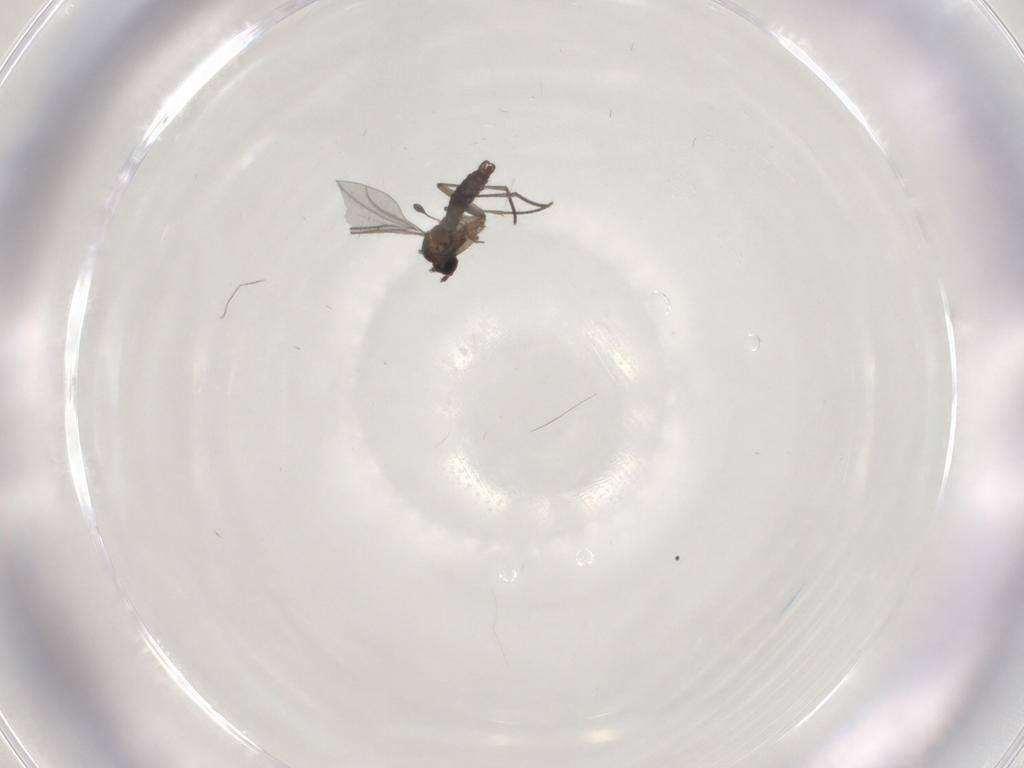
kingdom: Animalia
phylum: Arthropoda
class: Insecta
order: Diptera
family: Chironomidae
